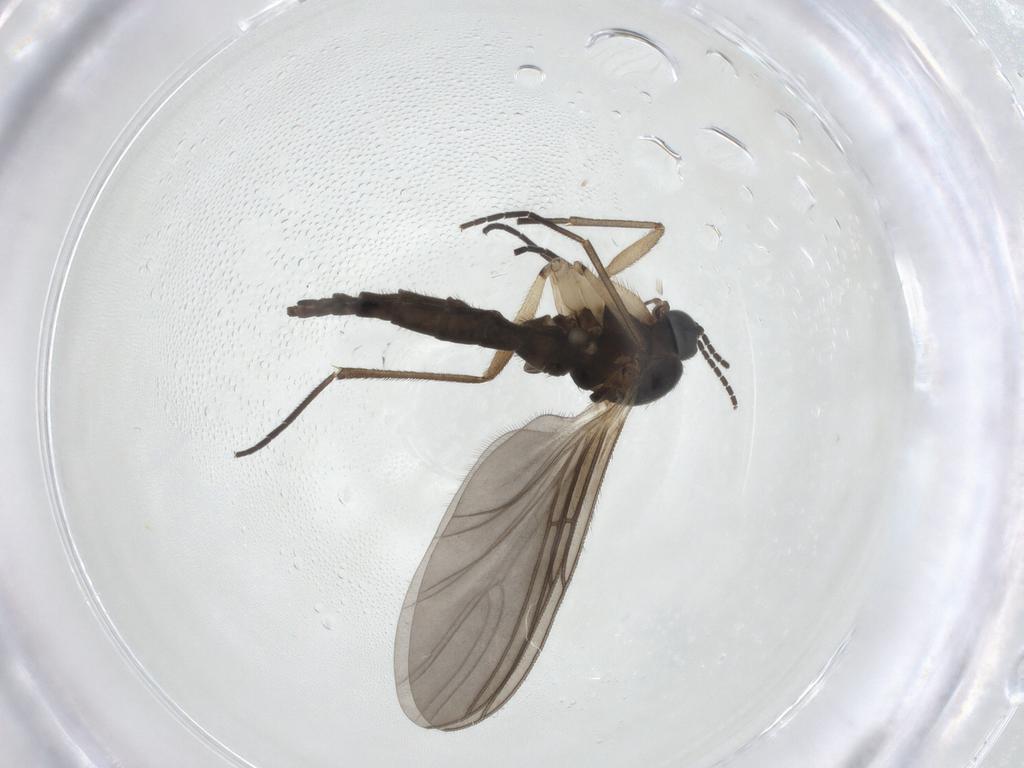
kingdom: Animalia
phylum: Arthropoda
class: Insecta
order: Diptera
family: Sciaridae
